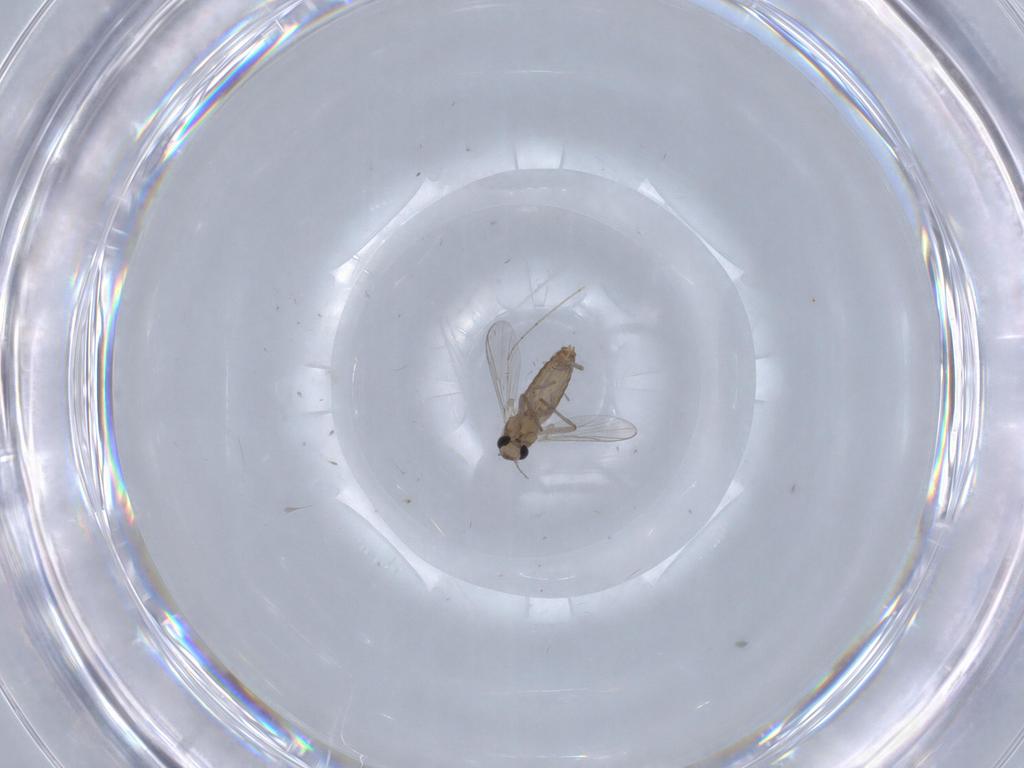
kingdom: Animalia
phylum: Arthropoda
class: Insecta
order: Diptera
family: Chironomidae
